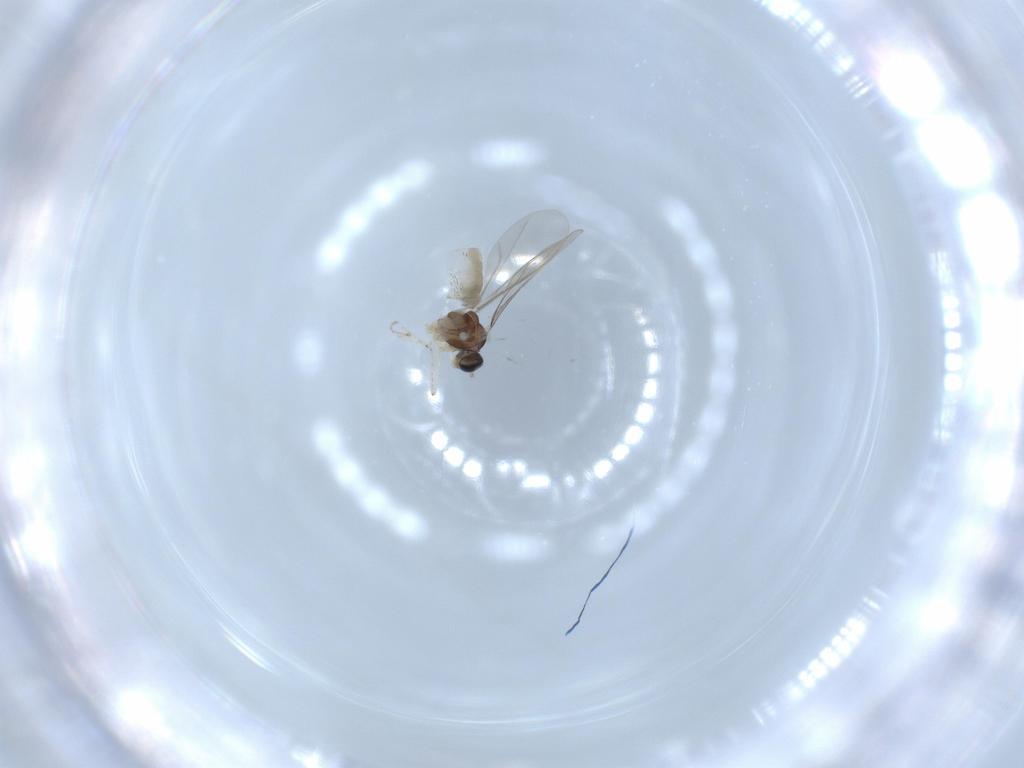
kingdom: Animalia
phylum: Arthropoda
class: Insecta
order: Diptera
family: Cecidomyiidae
